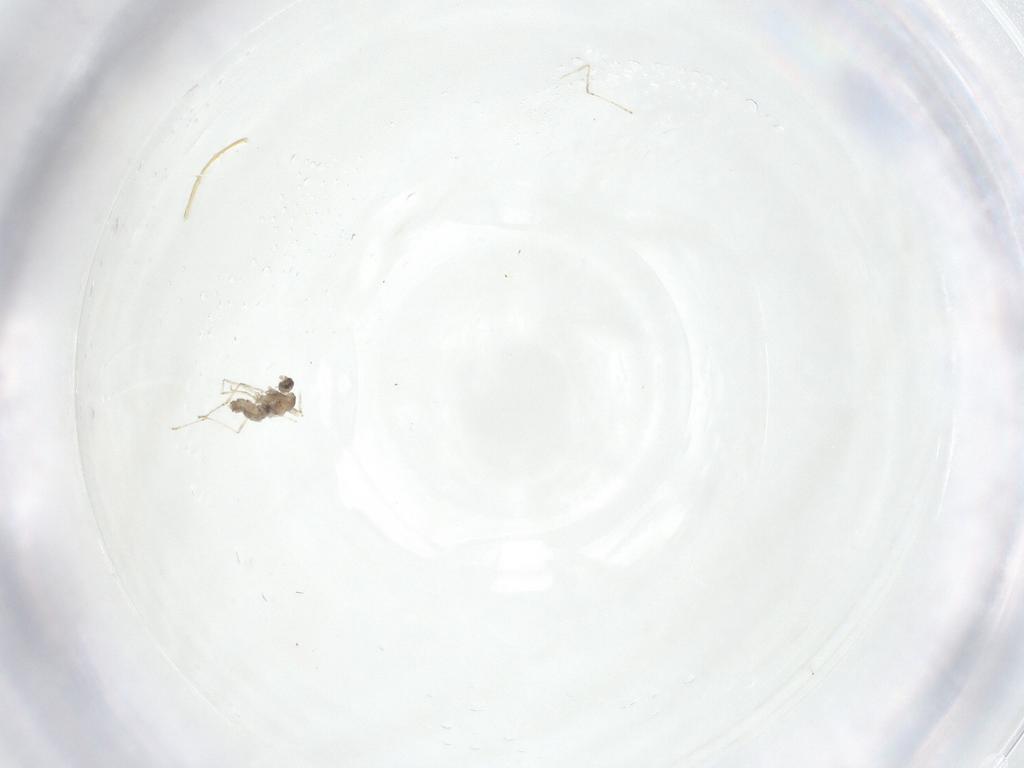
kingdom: Animalia
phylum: Arthropoda
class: Insecta
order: Diptera
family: Cecidomyiidae
